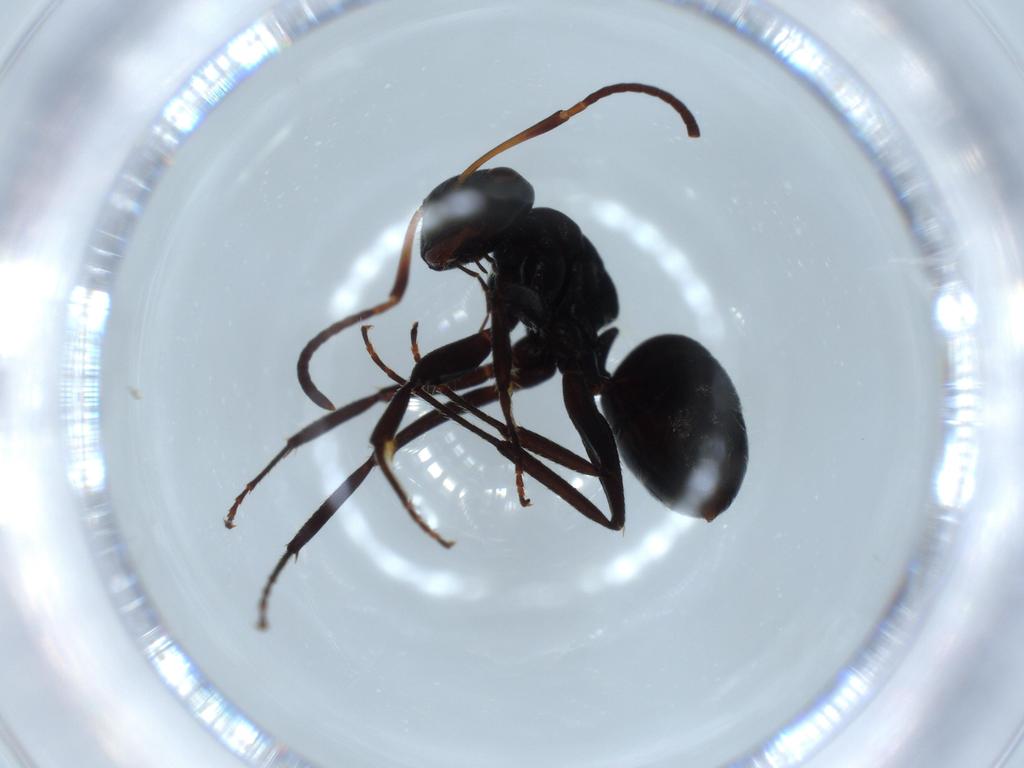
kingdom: Animalia
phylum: Arthropoda
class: Insecta
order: Hymenoptera
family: Formicidae
